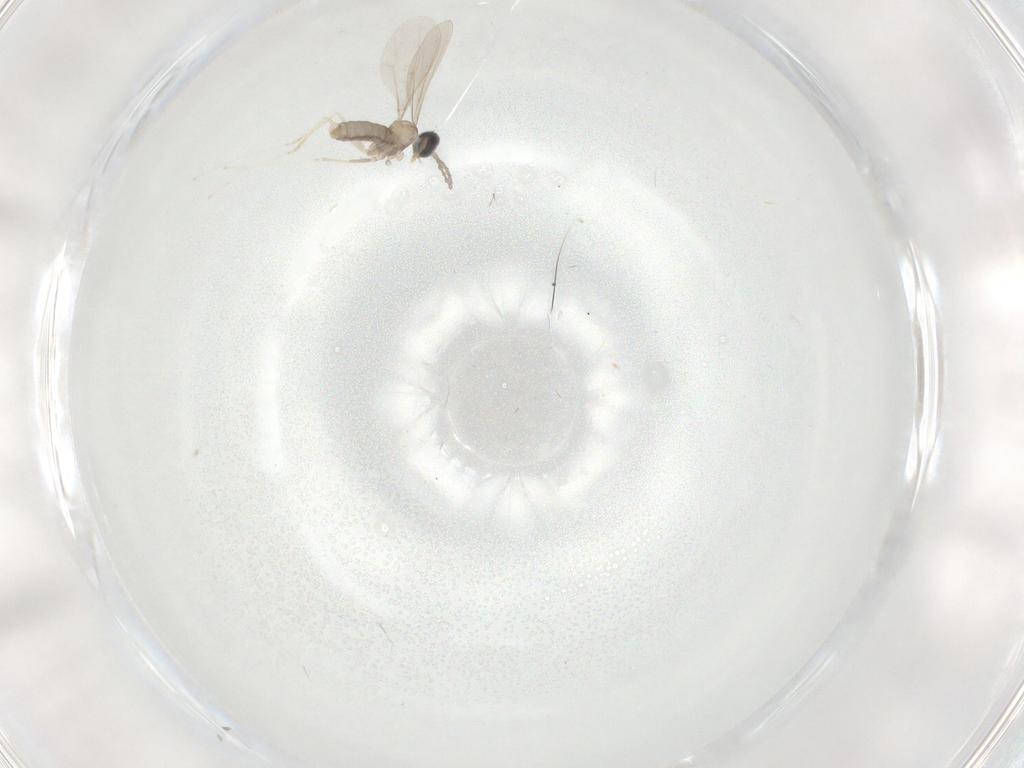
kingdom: Animalia
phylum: Arthropoda
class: Insecta
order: Diptera
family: Cecidomyiidae
